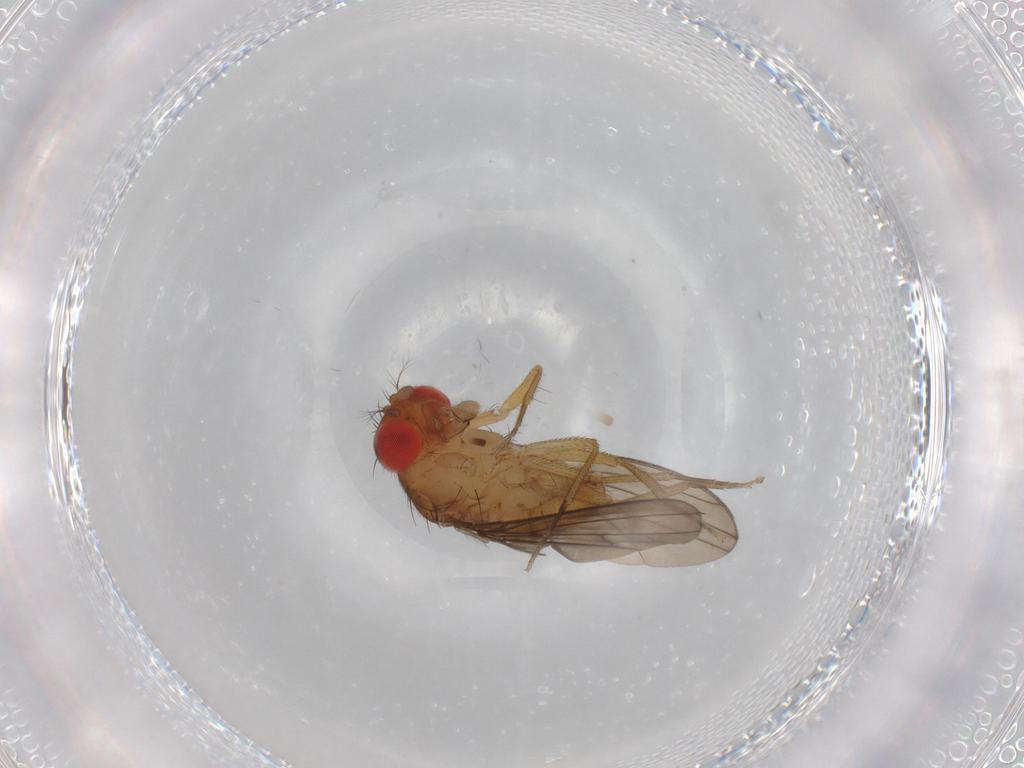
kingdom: Animalia
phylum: Arthropoda
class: Insecta
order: Diptera
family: Drosophilidae
